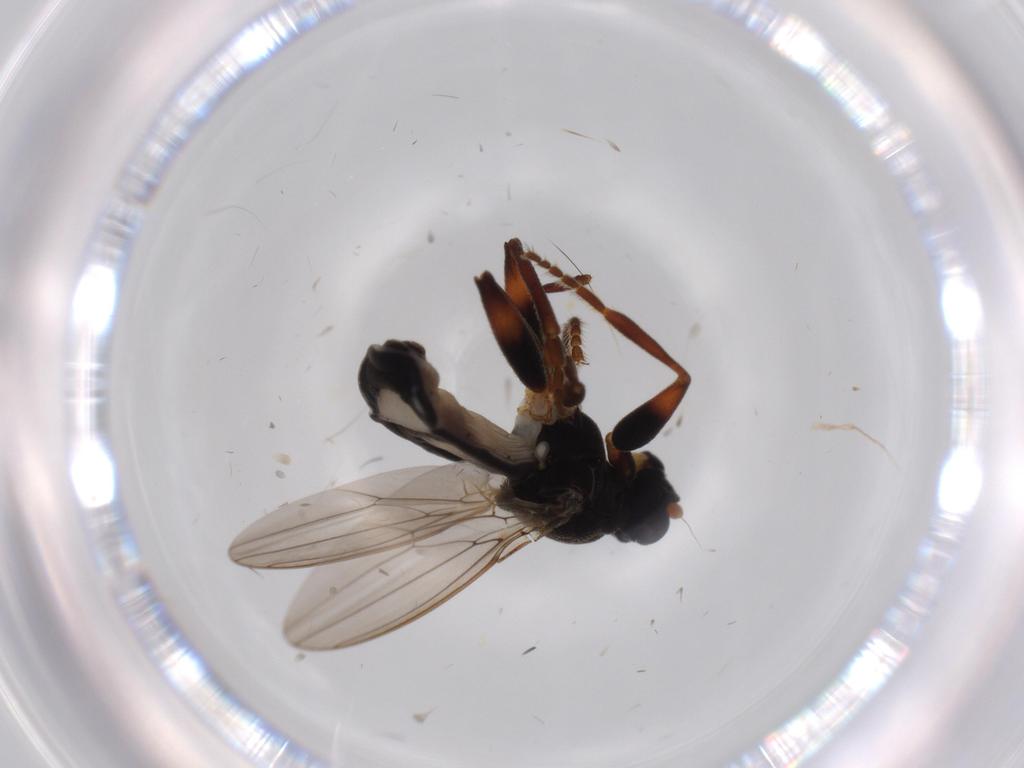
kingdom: Animalia
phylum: Arthropoda
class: Insecta
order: Diptera
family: Sphaeroceridae
